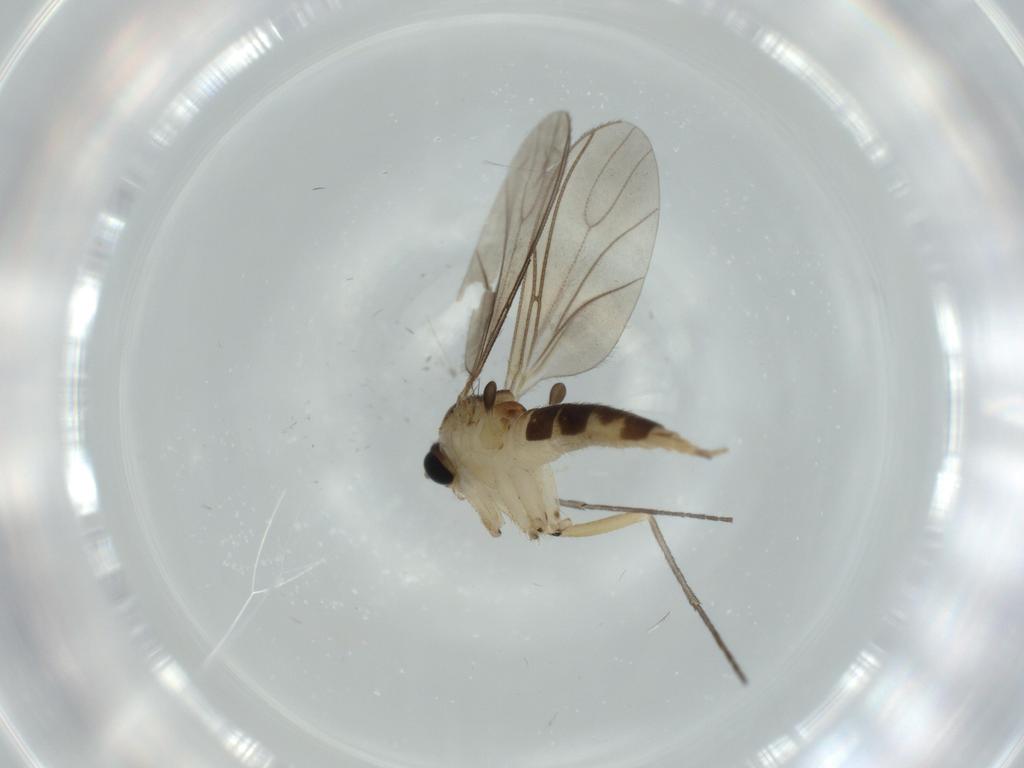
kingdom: Animalia
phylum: Arthropoda
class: Insecta
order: Diptera
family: Sciaridae
